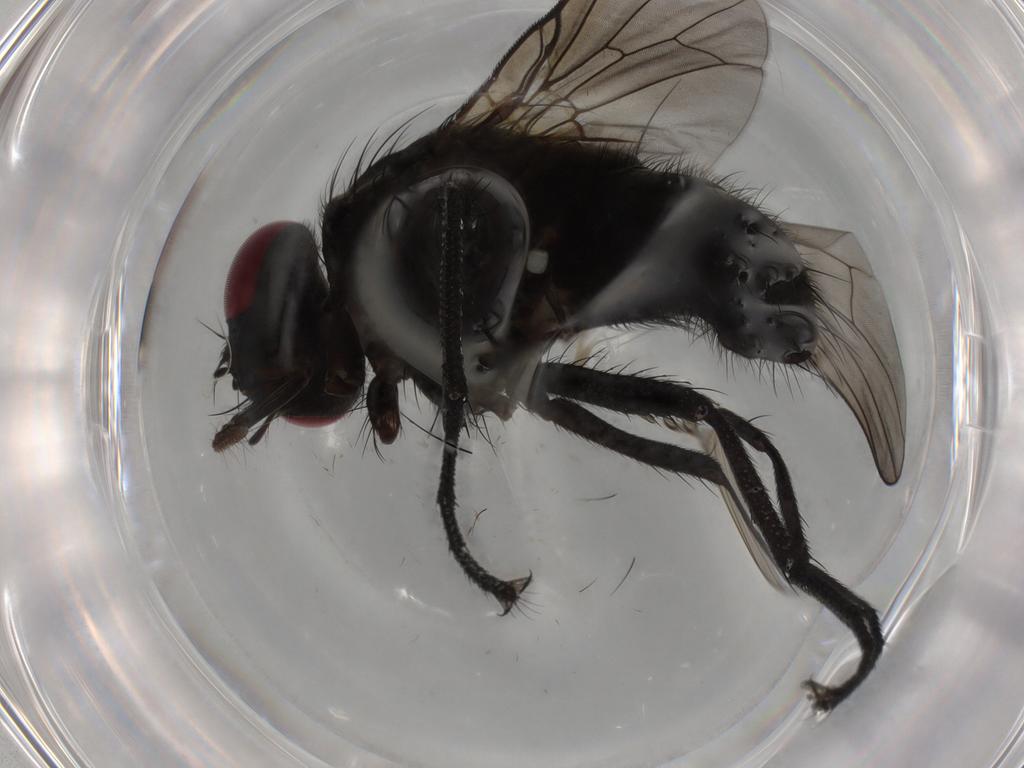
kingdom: Animalia
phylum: Arthropoda
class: Insecta
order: Diptera
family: Muscidae
